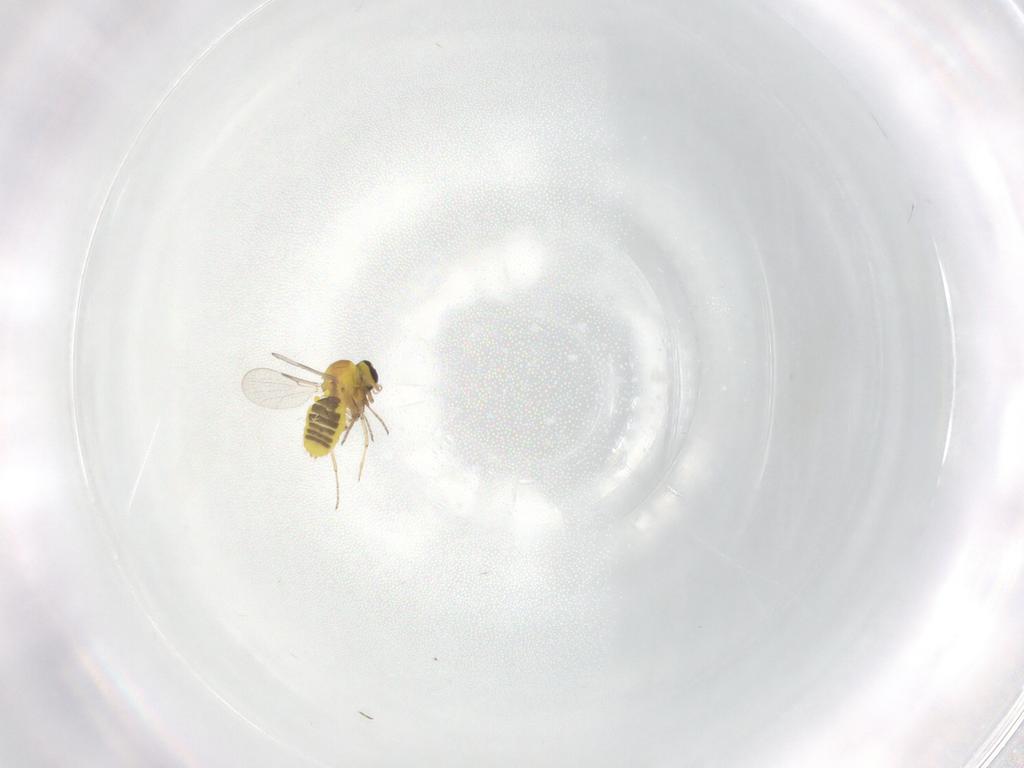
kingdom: Animalia
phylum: Arthropoda
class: Insecta
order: Diptera
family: Ceratopogonidae
